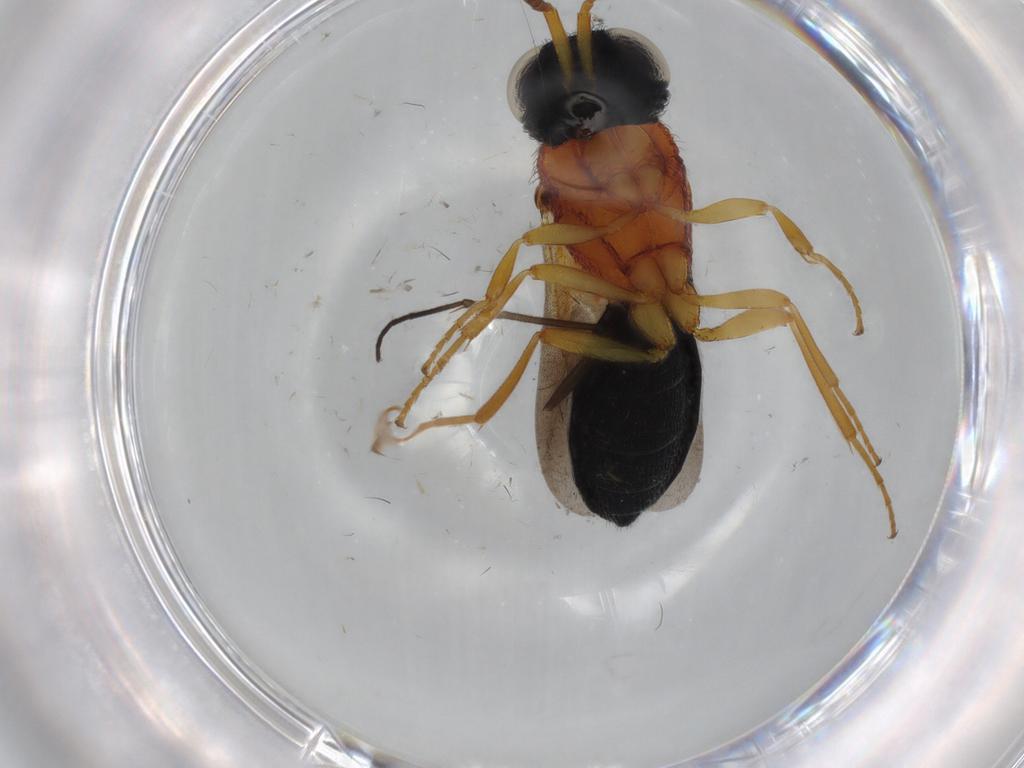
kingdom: Animalia
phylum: Arthropoda
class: Insecta
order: Hymenoptera
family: Scelionidae
